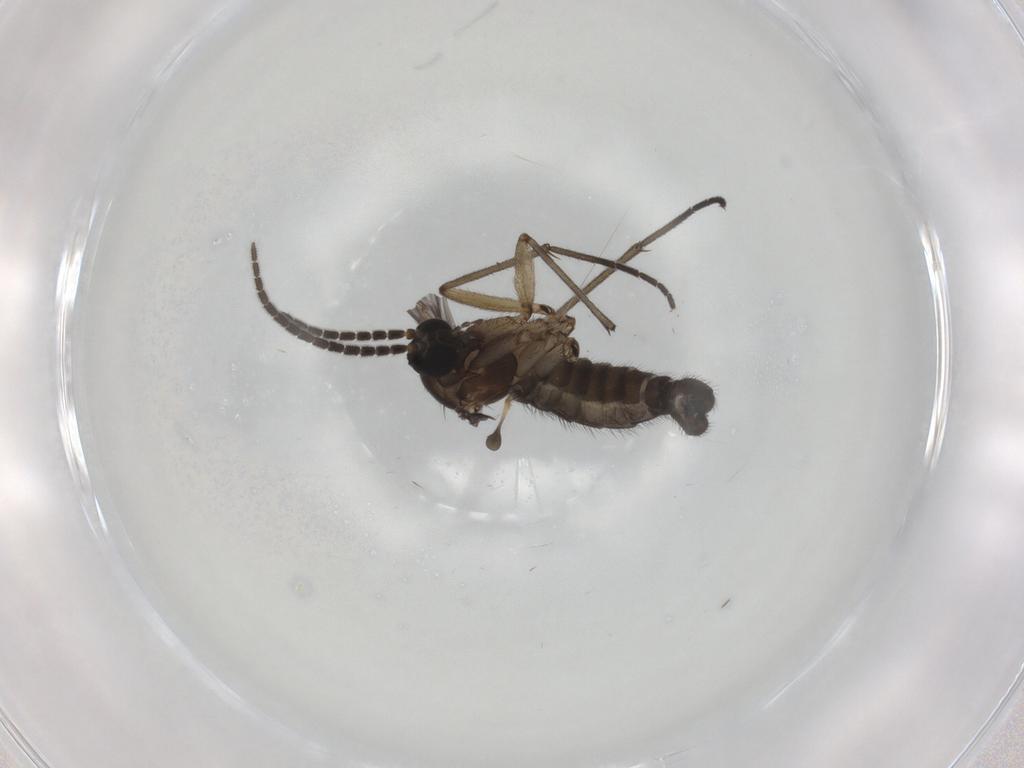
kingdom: Animalia
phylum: Arthropoda
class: Insecta
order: Diptera
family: Sciaridae
